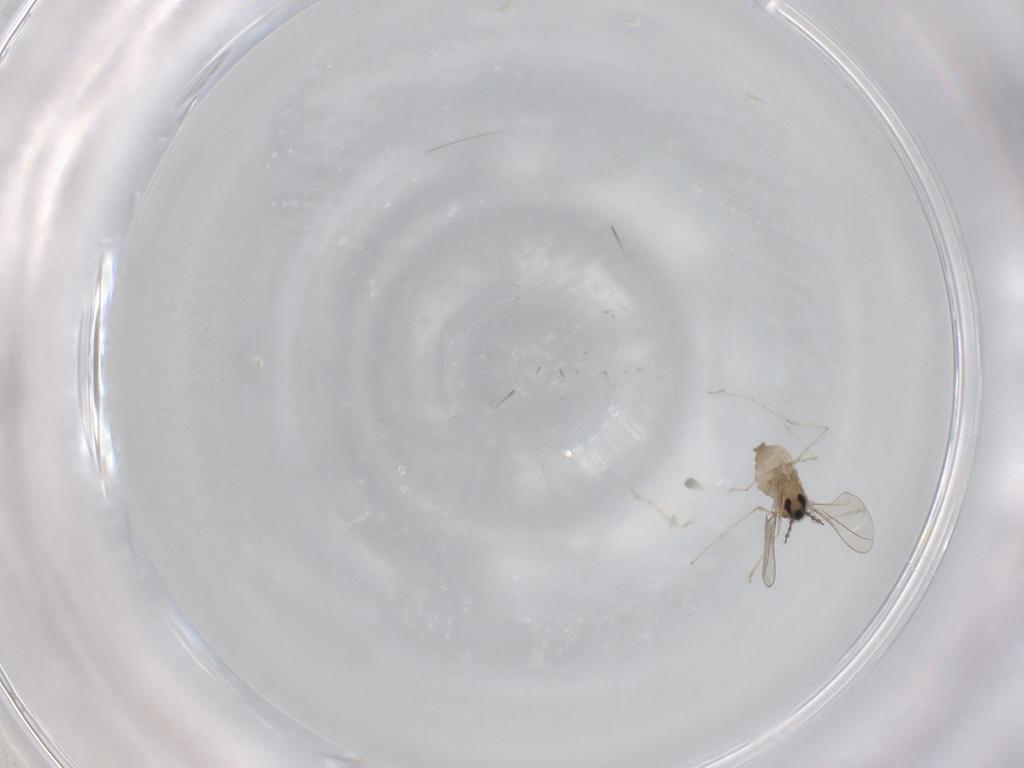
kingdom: Animalia
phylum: Arthropoda
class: Insecta
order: Diptera
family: Cecidomyiidae
